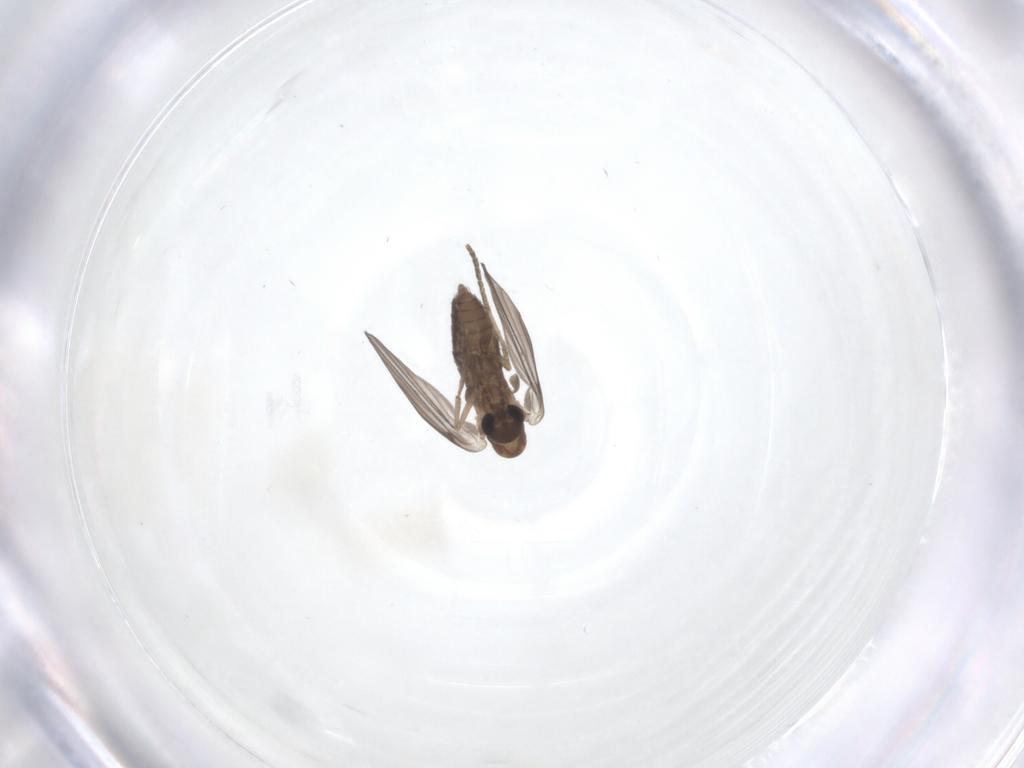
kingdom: Animalia
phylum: Arthropoda
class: Insecta
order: Diptera
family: Psychodidae
